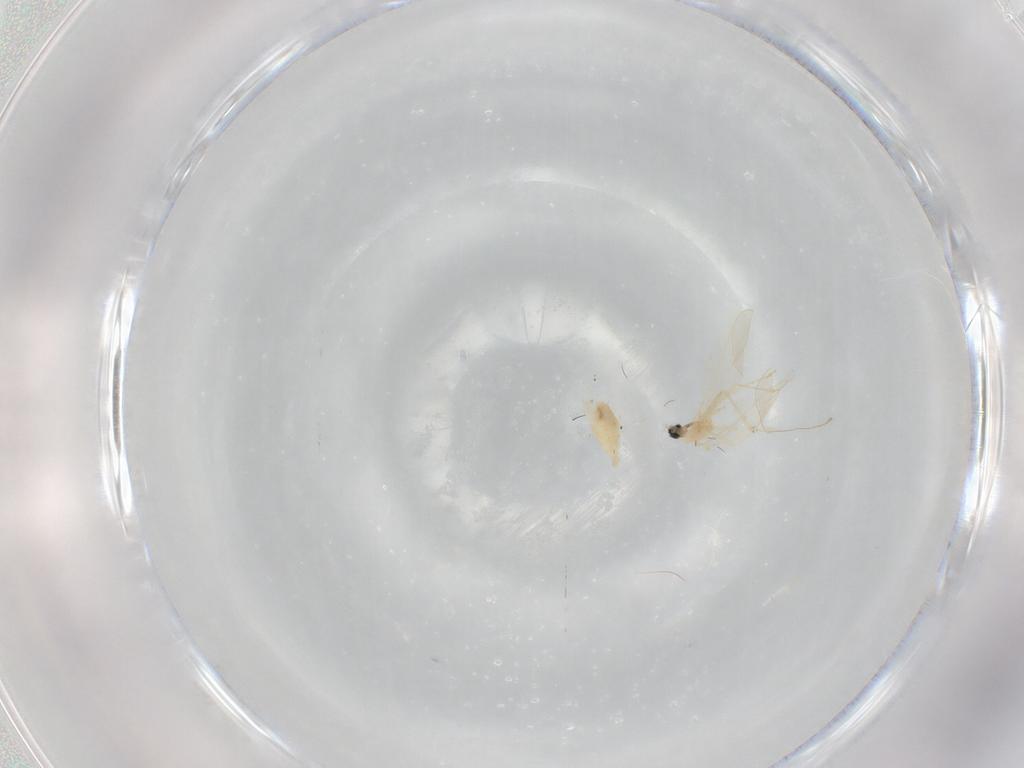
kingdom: Animalia
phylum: Arthropoda
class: Insecta
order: Diptera
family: Cecidomyiidae
